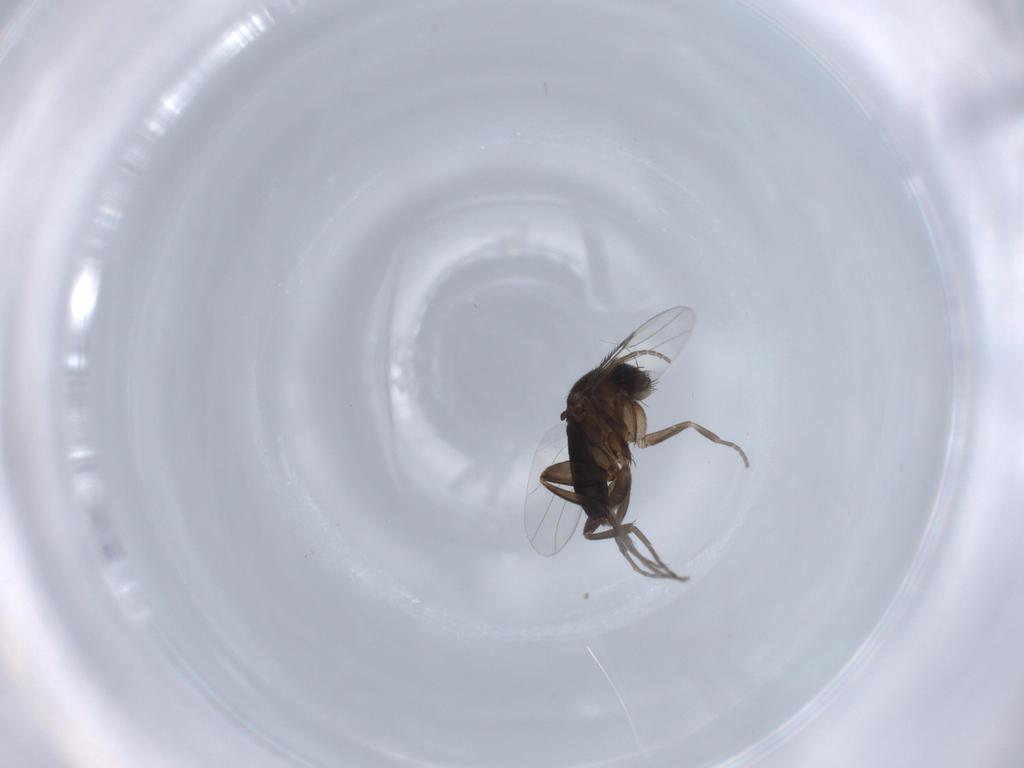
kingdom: Animalia
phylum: Arthropoda
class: Insecta
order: Diptera
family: Phoridae
